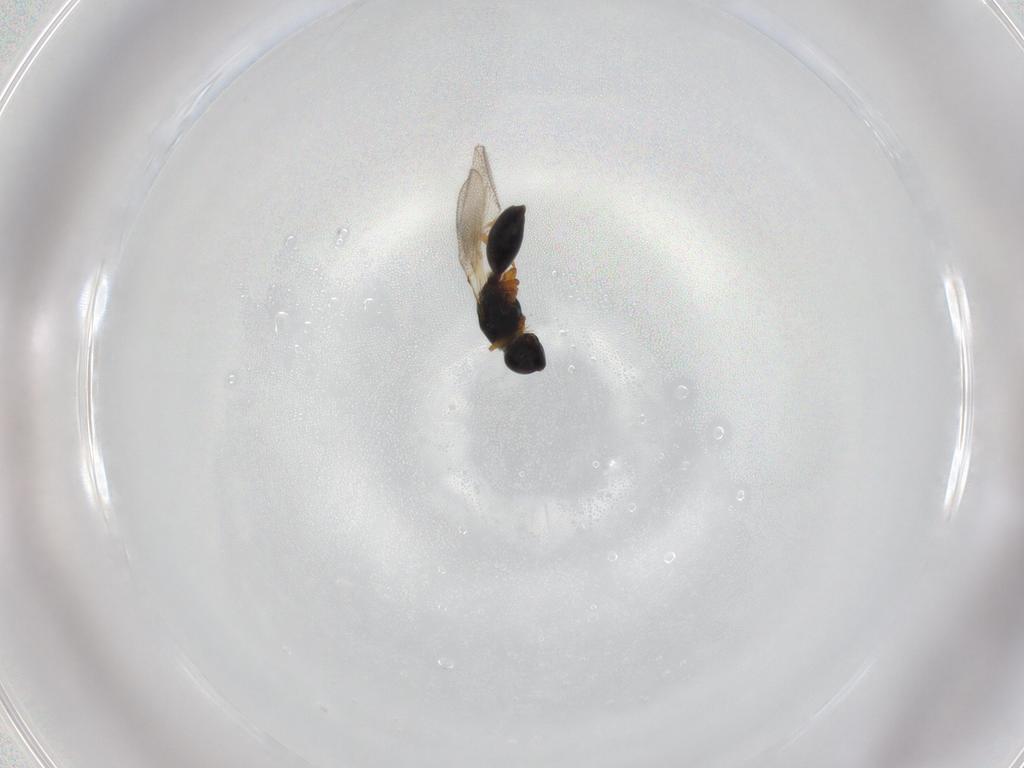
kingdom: Animalia
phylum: Arthropoda
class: Insecta
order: Hymenoptera
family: Diapriidae
